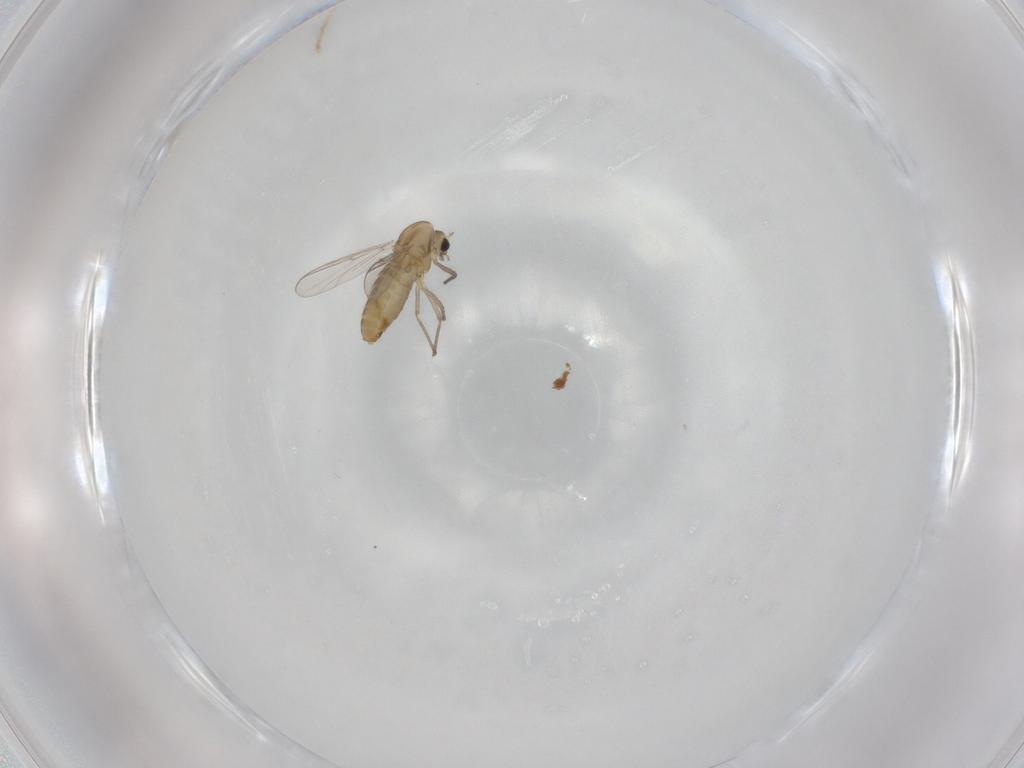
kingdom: Animalia
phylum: Arthropoda
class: Insecta
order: Diptera
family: Chironomidae
